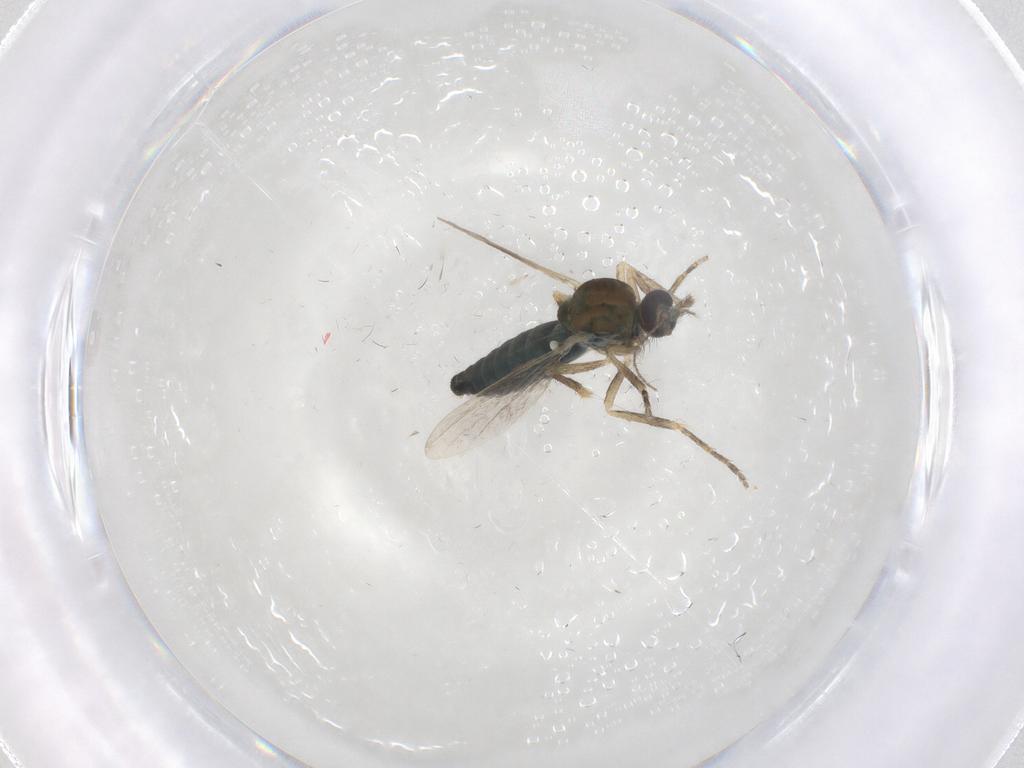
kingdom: Animalia
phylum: Arthropoda
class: Insecta
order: Diptera
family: Ceratopogonidae
